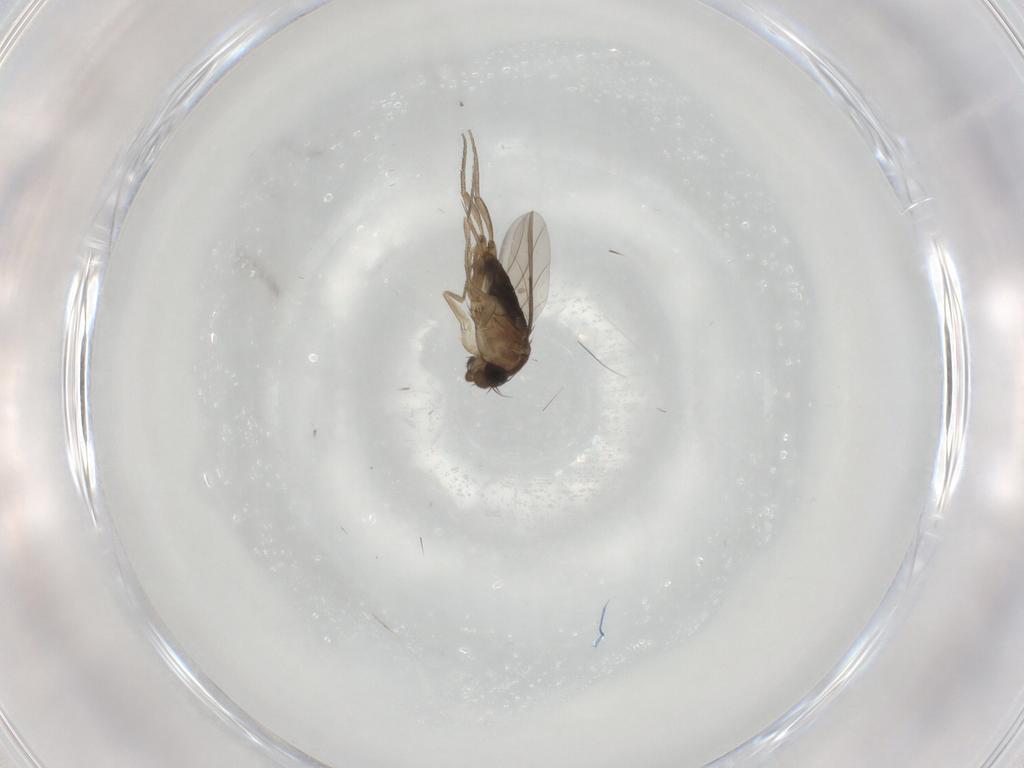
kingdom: Animalia
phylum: Arthropoda
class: Insecta
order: Diptera
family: Phoridae
